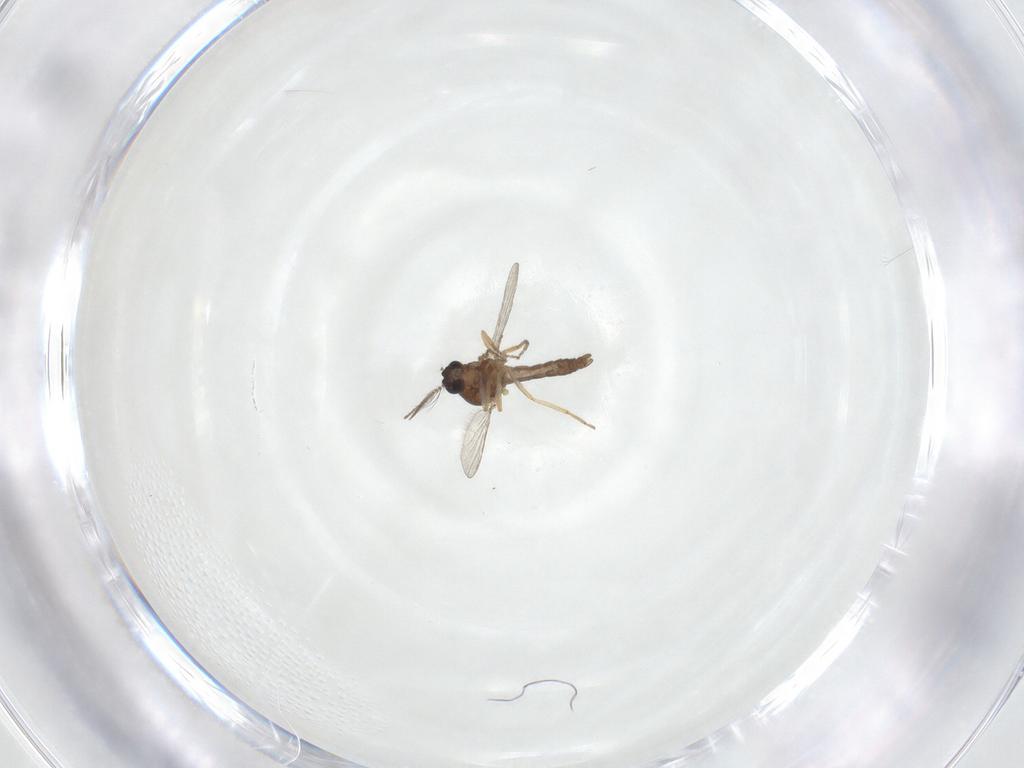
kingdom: Animalia
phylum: Arthropoda
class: Insecta
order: Diptera
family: Ceratopogonidae
